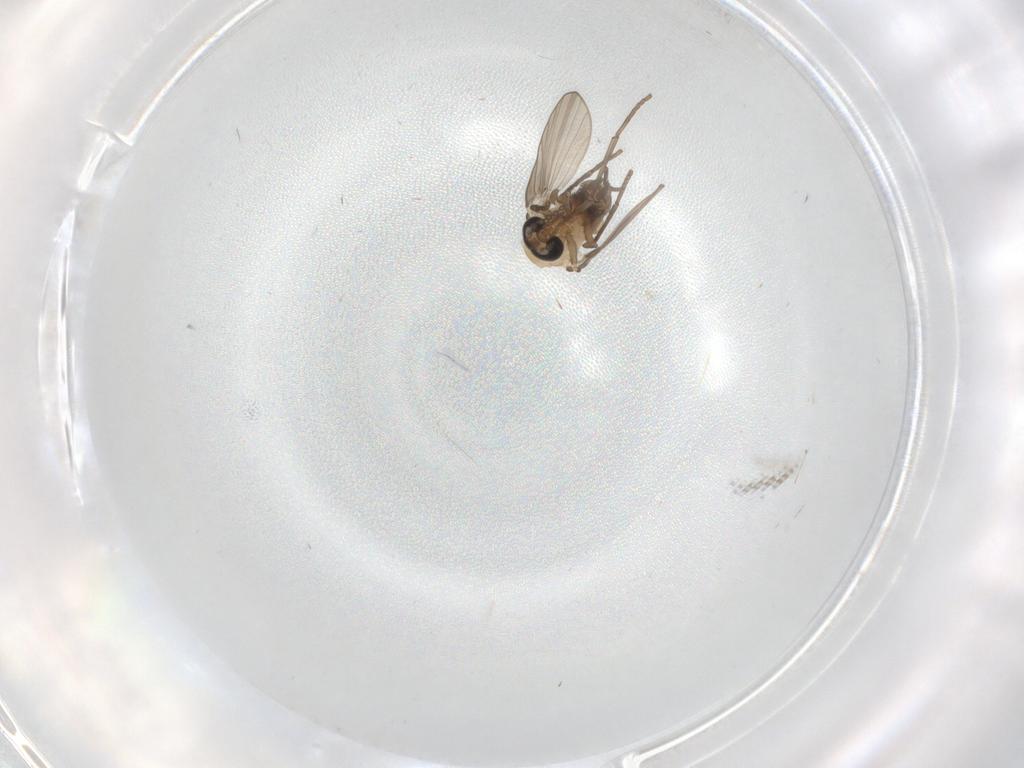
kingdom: Animalia
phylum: Arthropoda
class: Insecta
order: Diptera
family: Psychodidae
